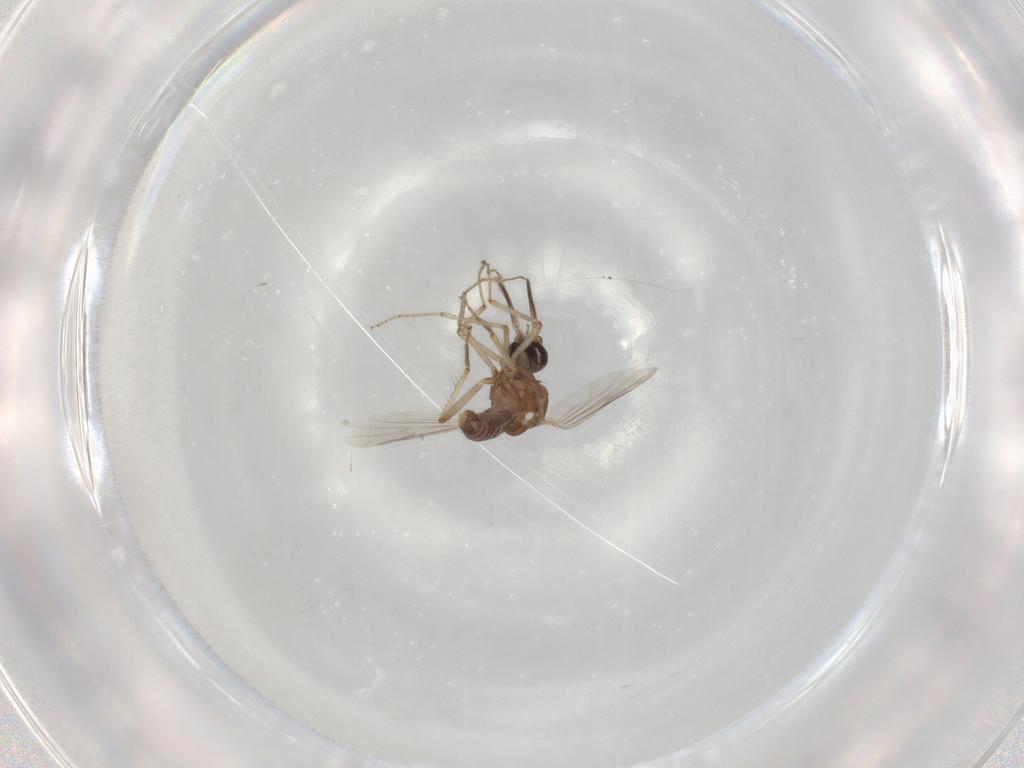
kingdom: Animalia
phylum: Arthropoda
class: Insecta
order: Diptera
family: Ceratopogonidae
